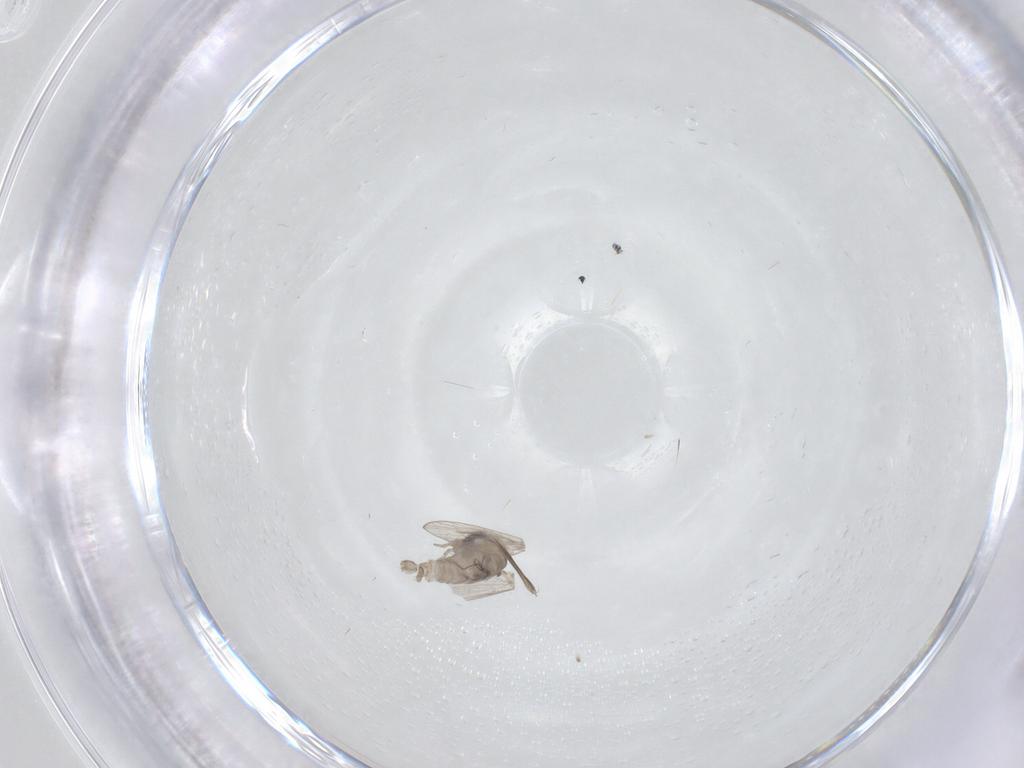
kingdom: Animalia
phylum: Arthropoda
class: Insecta
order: Diptera
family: Ceratopogonidae
